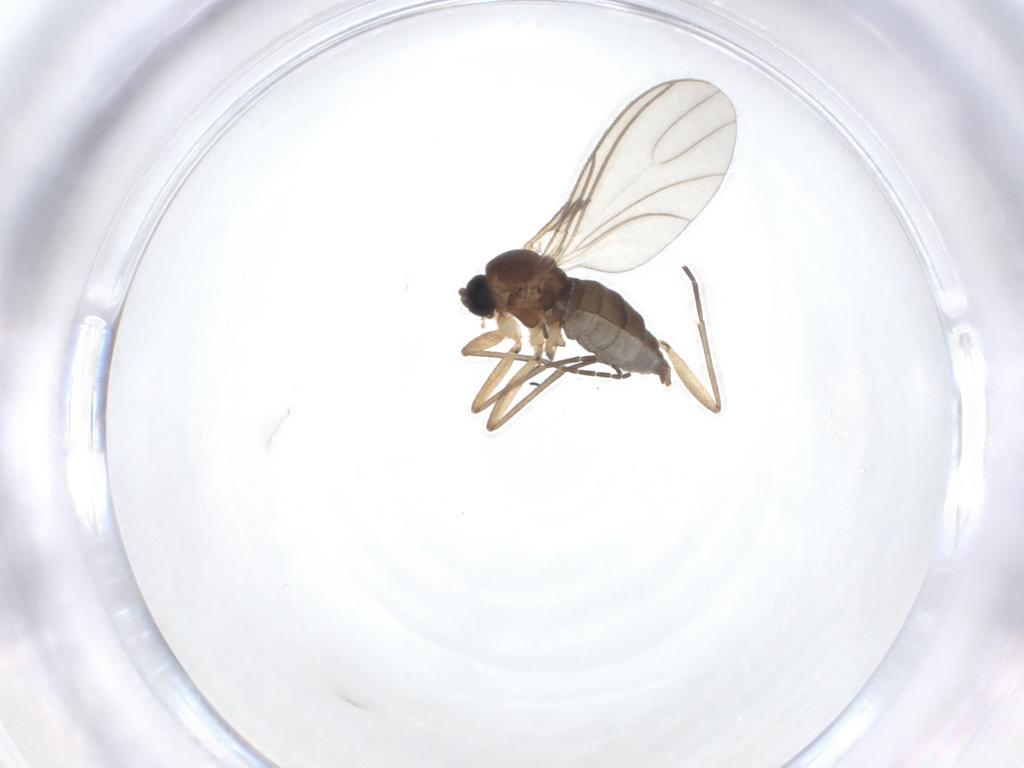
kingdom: Animalia
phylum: Arthropoda
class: Insecta
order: Diptera
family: Sciaridae
